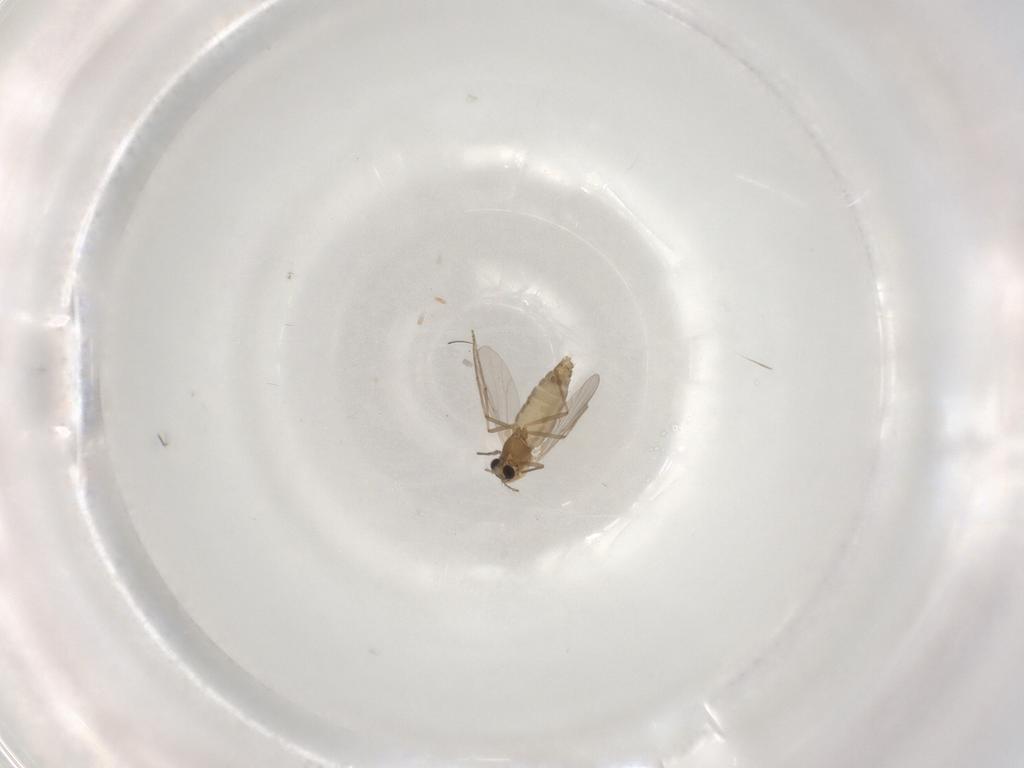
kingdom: Animalia
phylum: Arthropoda
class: Insecta
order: Diptera
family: Chironomidae
